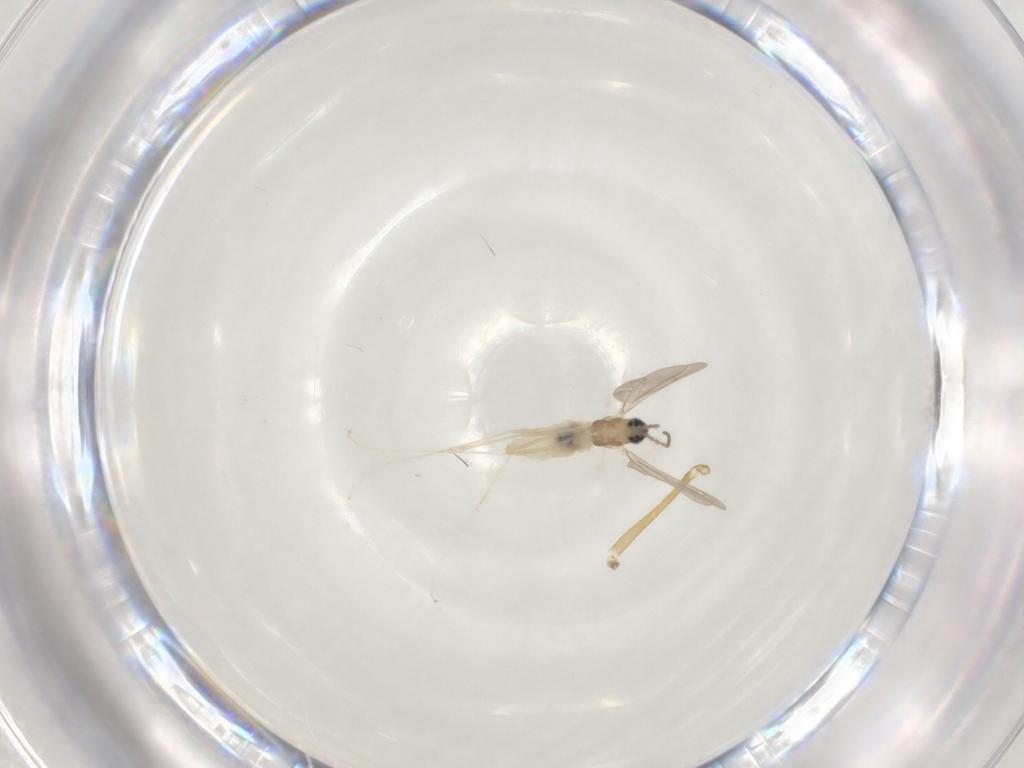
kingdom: Animalia
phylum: Arthropoda
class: Insecta
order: Diptera
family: Cecidomyiidae
